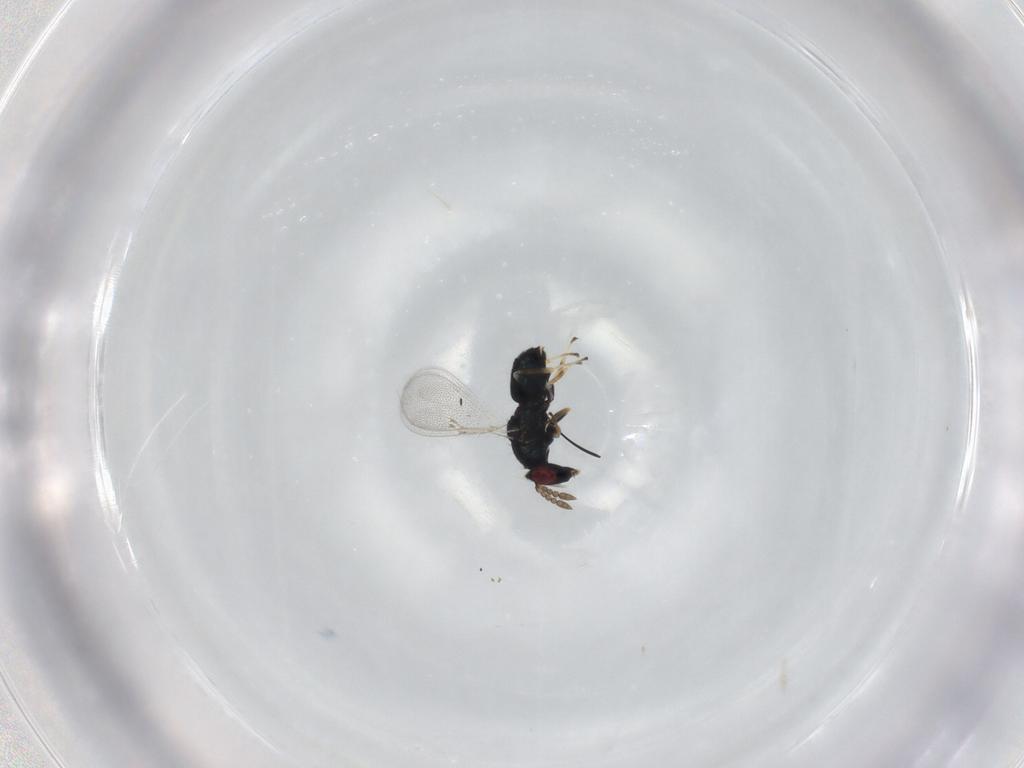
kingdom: Animalia
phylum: Arthropoda
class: Insecta
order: Hymenoptera
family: Eulophidae
